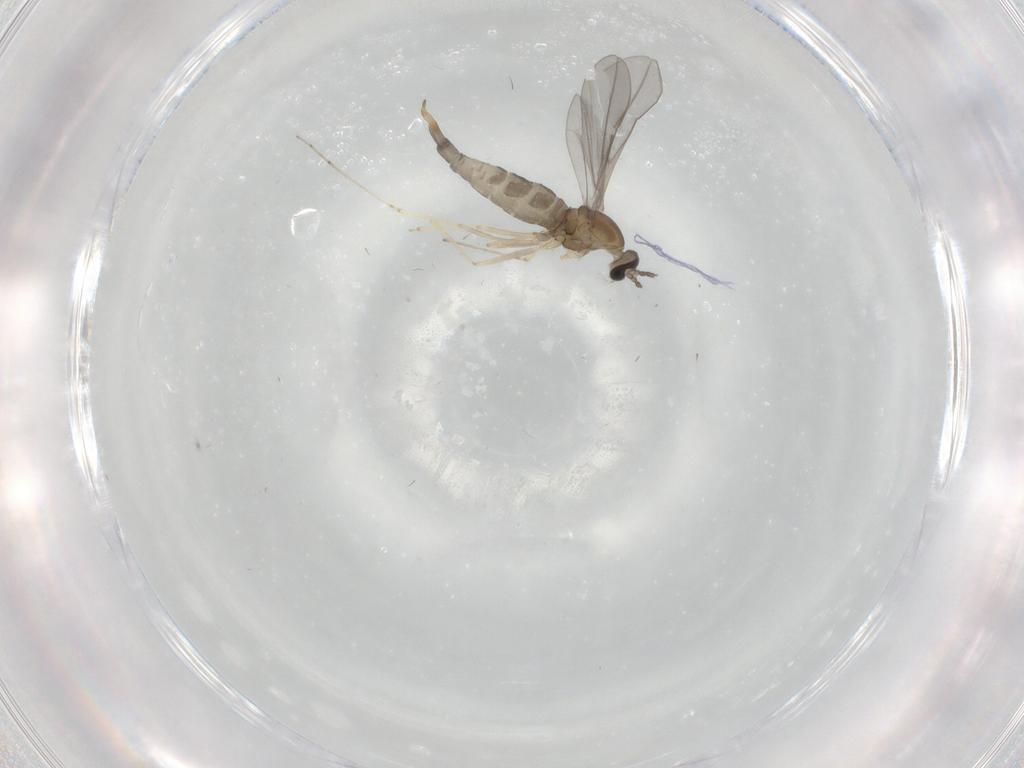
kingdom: Animalia
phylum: Arthropoda
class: Insecta
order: Diptera
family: Cecidomyiidae
